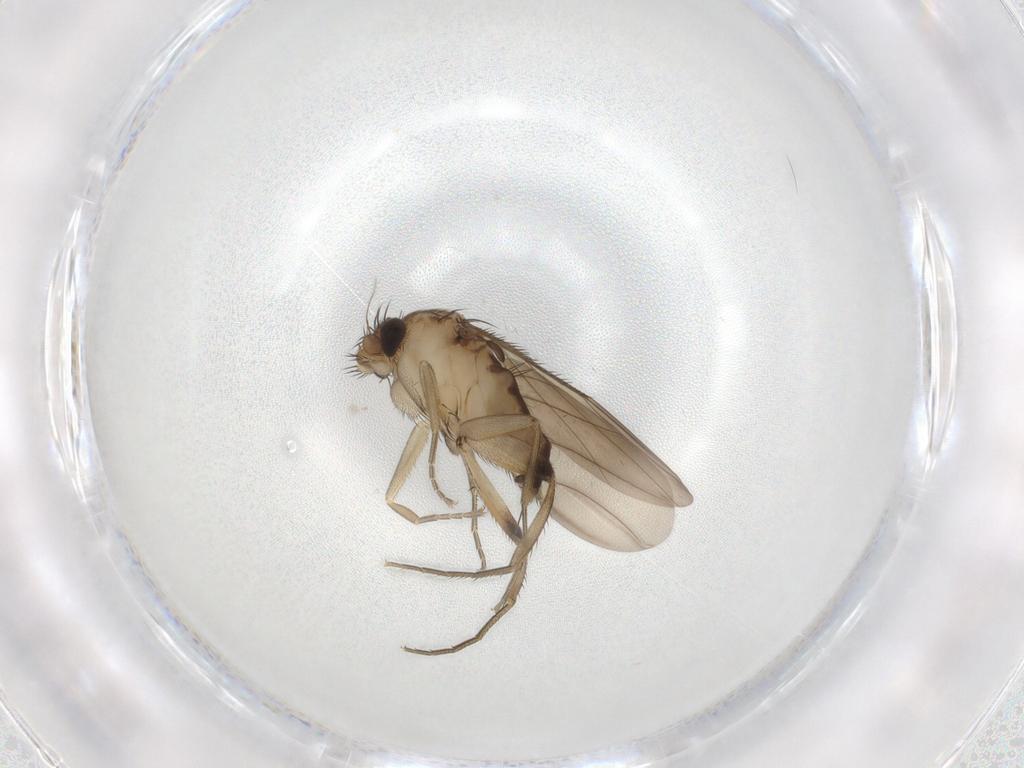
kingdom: Animalia
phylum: Arthropoda
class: Insecta
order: Diptera
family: Phoridae
